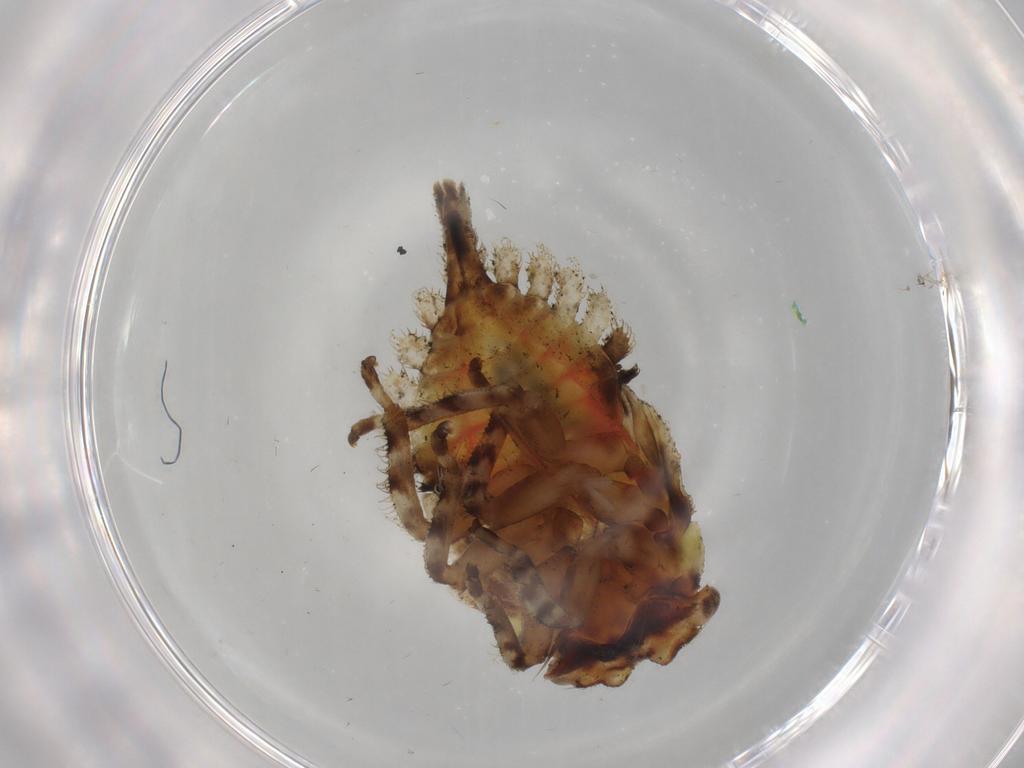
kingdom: Animalia
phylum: Arthropoda
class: Insecta
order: Hemiptera
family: Membracidae
